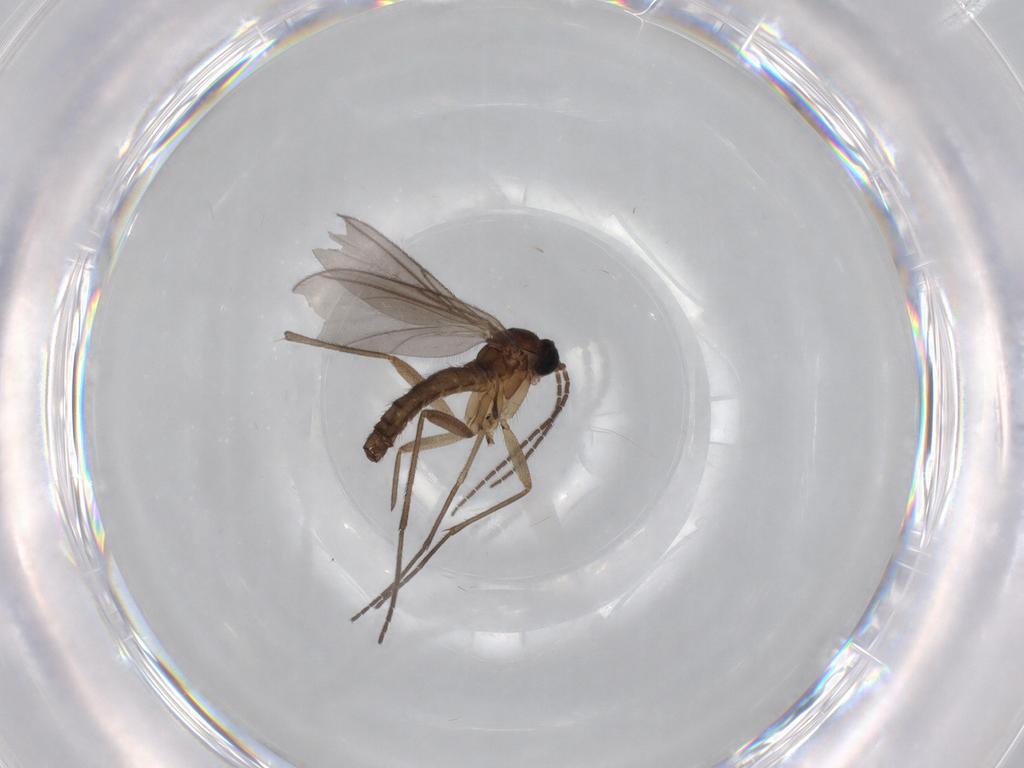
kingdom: Animalia
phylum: Arthropoda
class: Insecta
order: Diptera
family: Sciaridae
